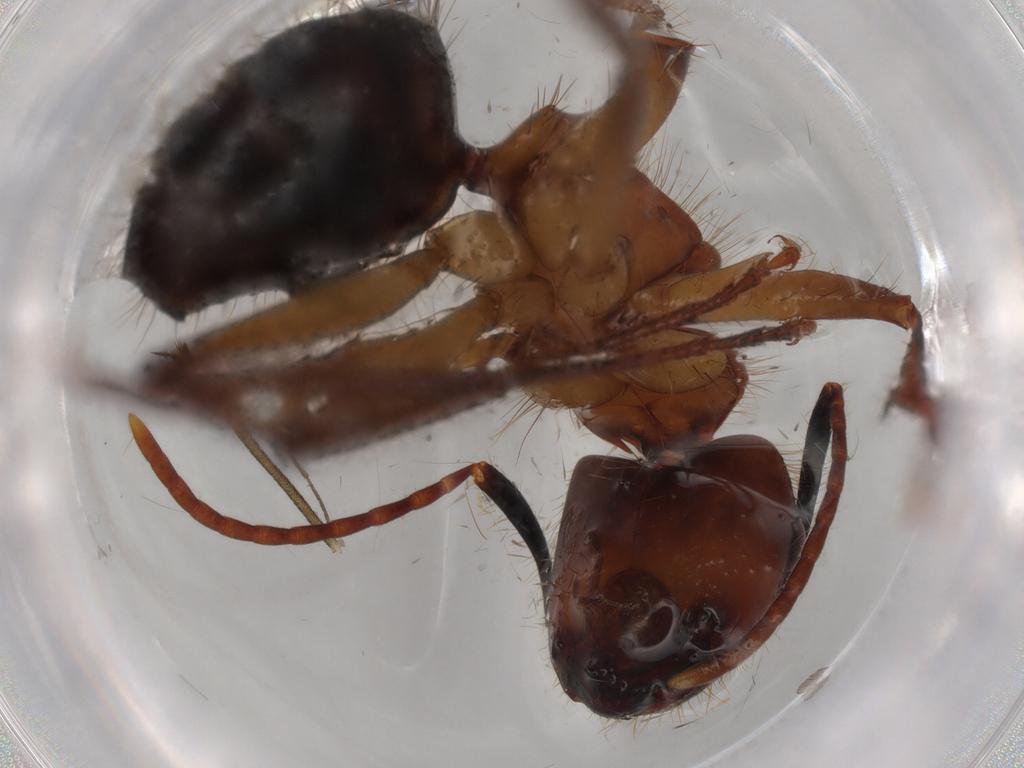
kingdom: Animalia
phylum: Arthropoda
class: Insecta
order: Hymenoptera
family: Formicidae
